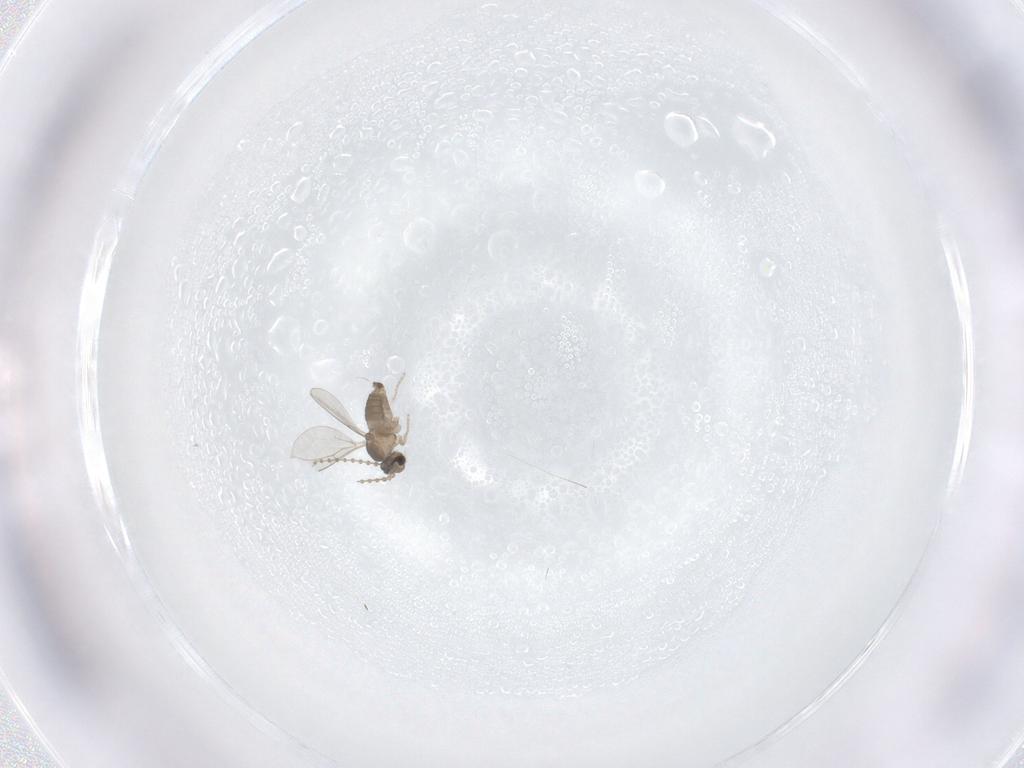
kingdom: Animalia
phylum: Arthropoda
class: Insecta
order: Diptera
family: Cecidomyiidae
